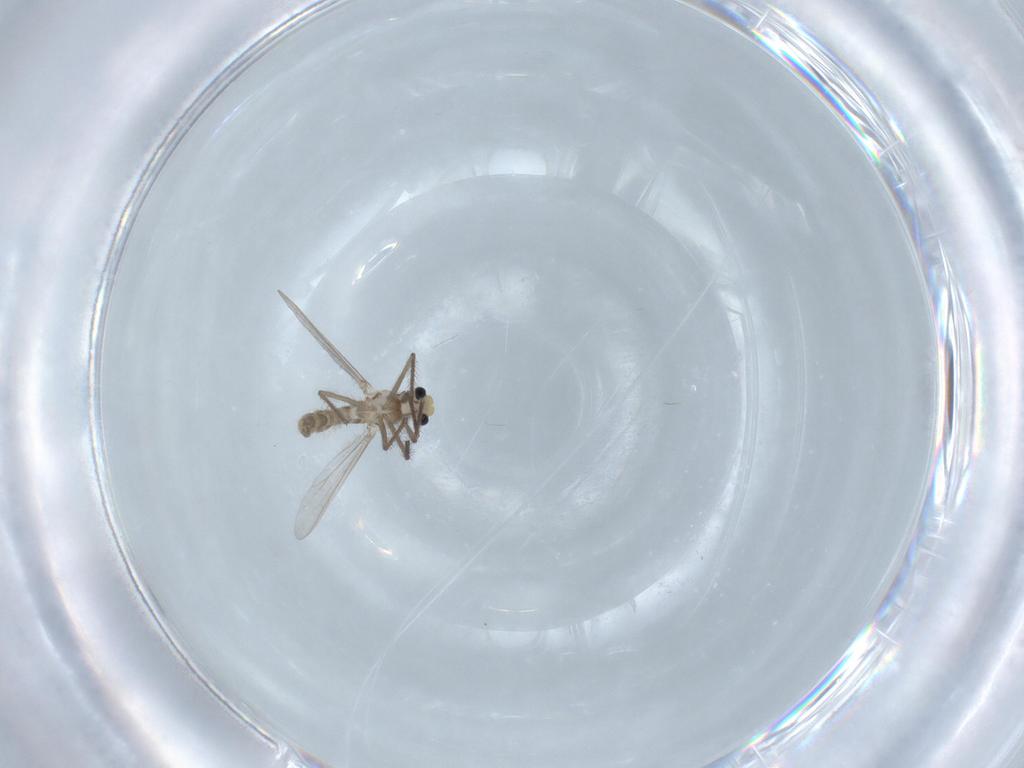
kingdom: Animalia
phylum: Arthropoda
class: Insecta
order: Diptera
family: Chironomidae
